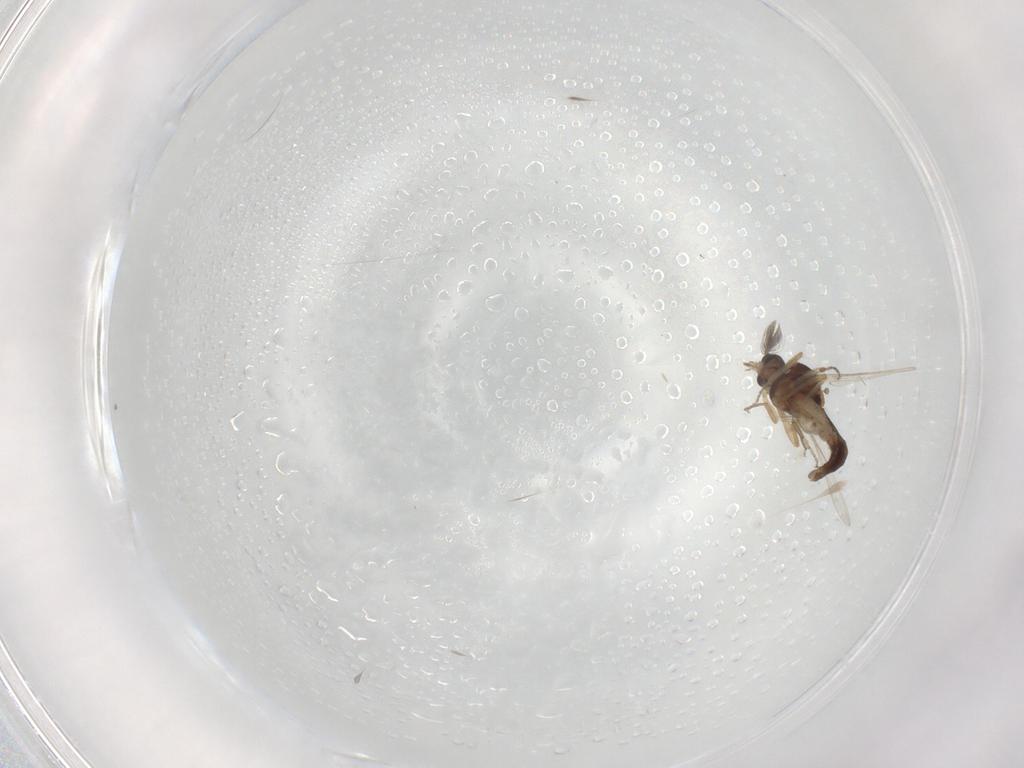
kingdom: Animalia
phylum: Arthropoda
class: Insecta
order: Diptera
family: Ceratopogonidae
